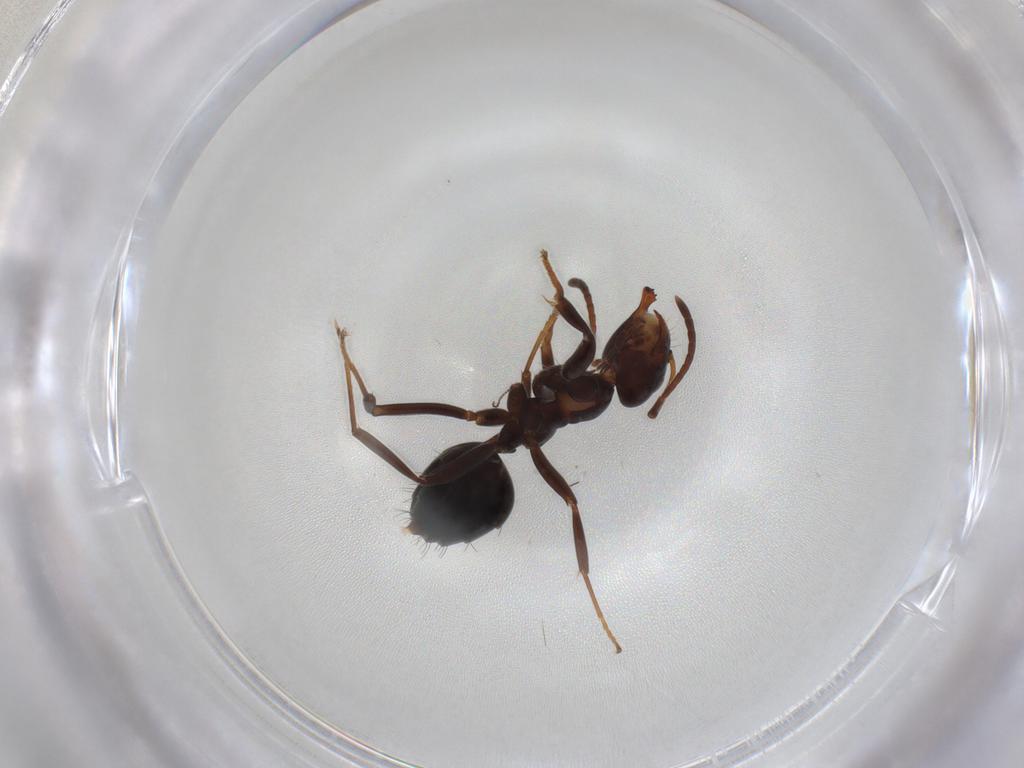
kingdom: Animalia
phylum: Arthropoda
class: Insecta
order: Hymenoptera
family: Formicidae
